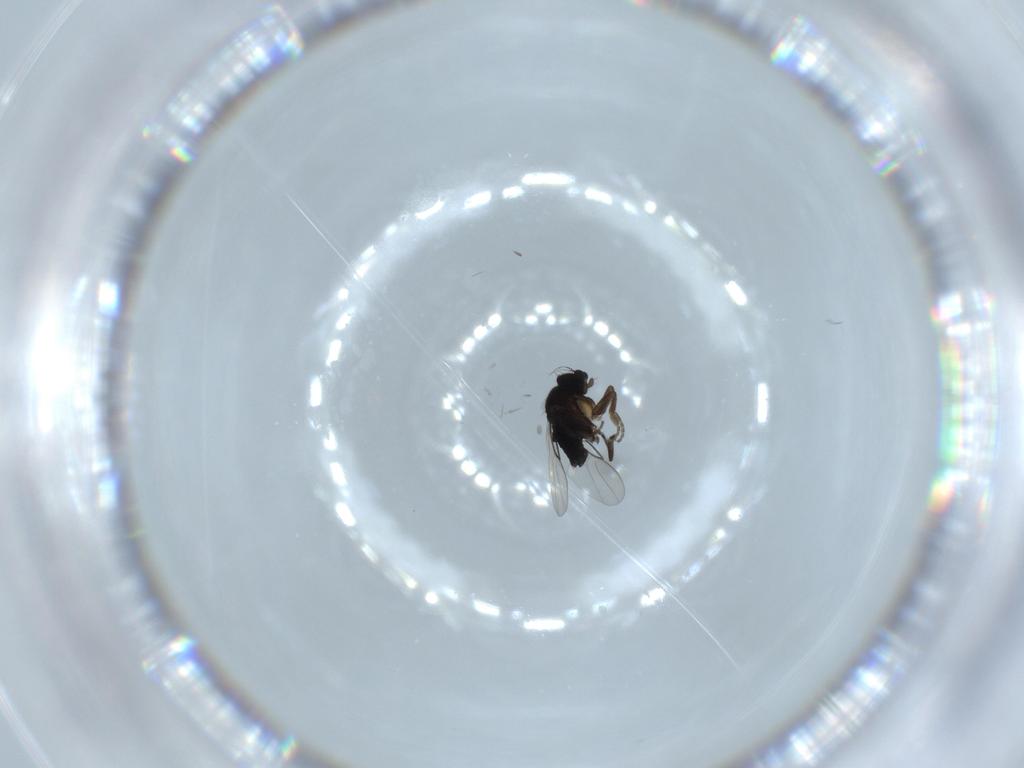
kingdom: Animalia
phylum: Arthropoda
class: Insecta
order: Diptera
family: Phoridae
